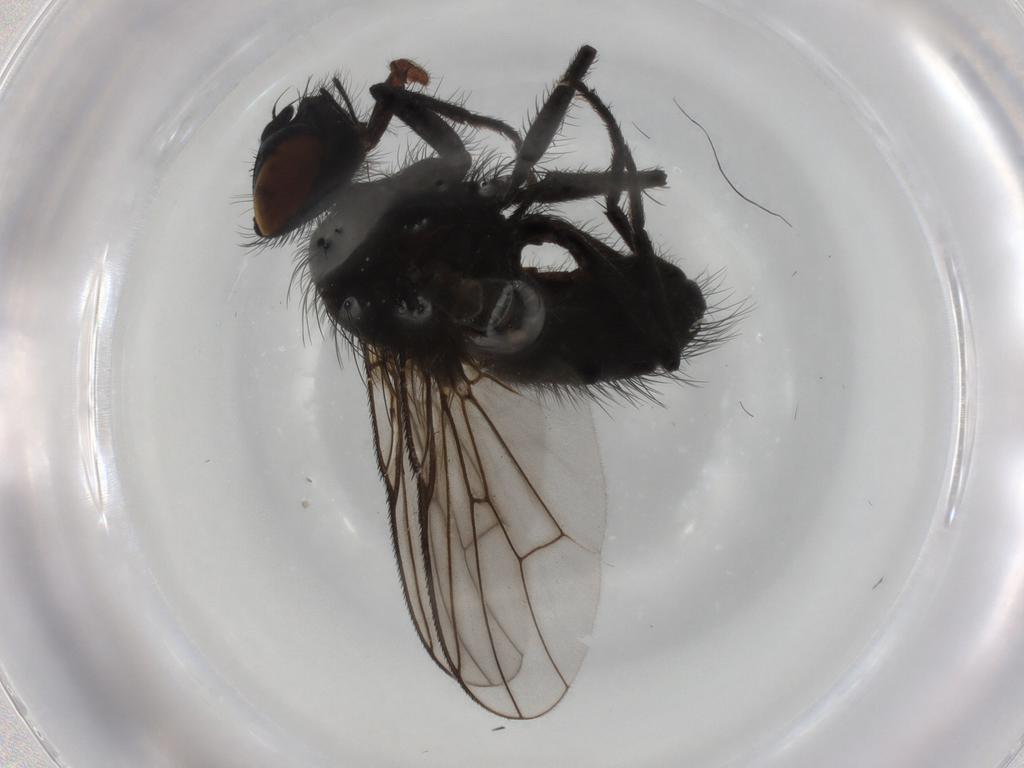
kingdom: Animalia
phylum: Arthropoda
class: Insecta
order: Diptera
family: Muscidae
